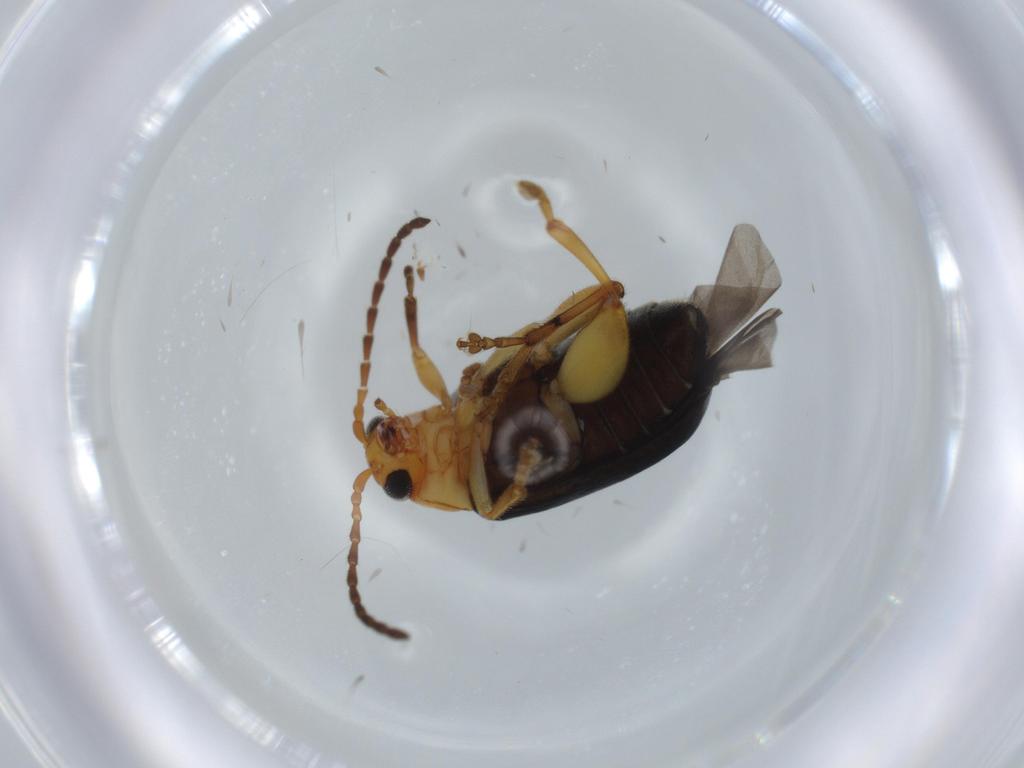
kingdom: Animalia
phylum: Arthropoda
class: Insecta
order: Coleoptera
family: Chrysomelidae
